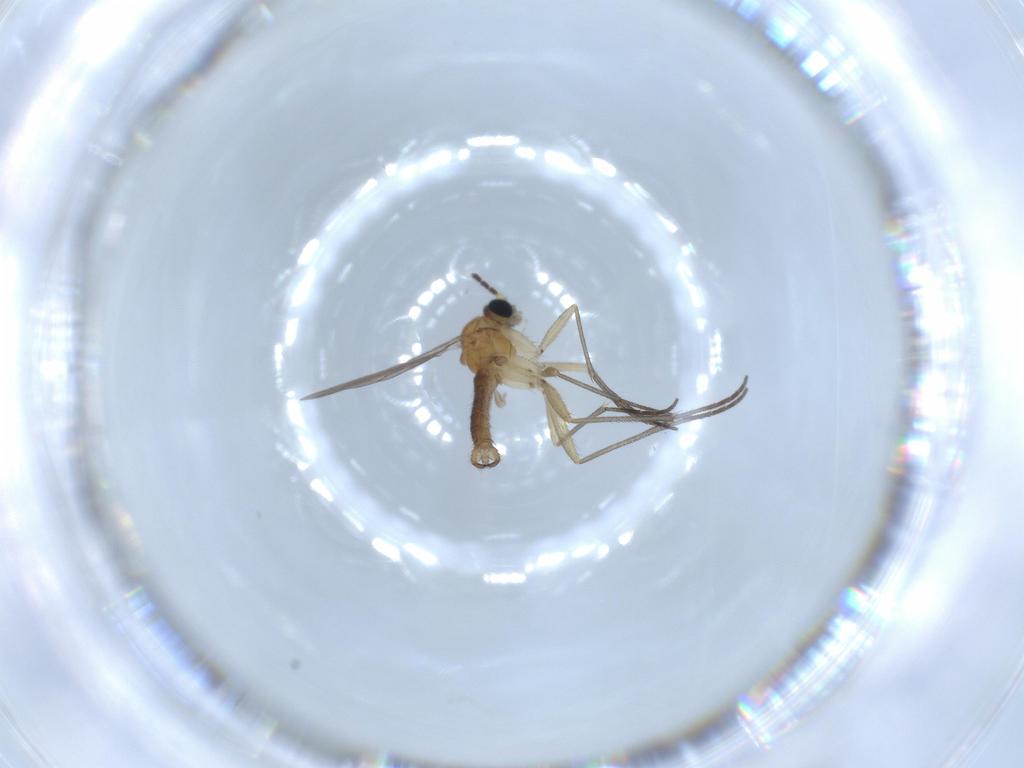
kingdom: Animalia
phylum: Arthropoda
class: Insecta
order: Diptera
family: Sciaridae
